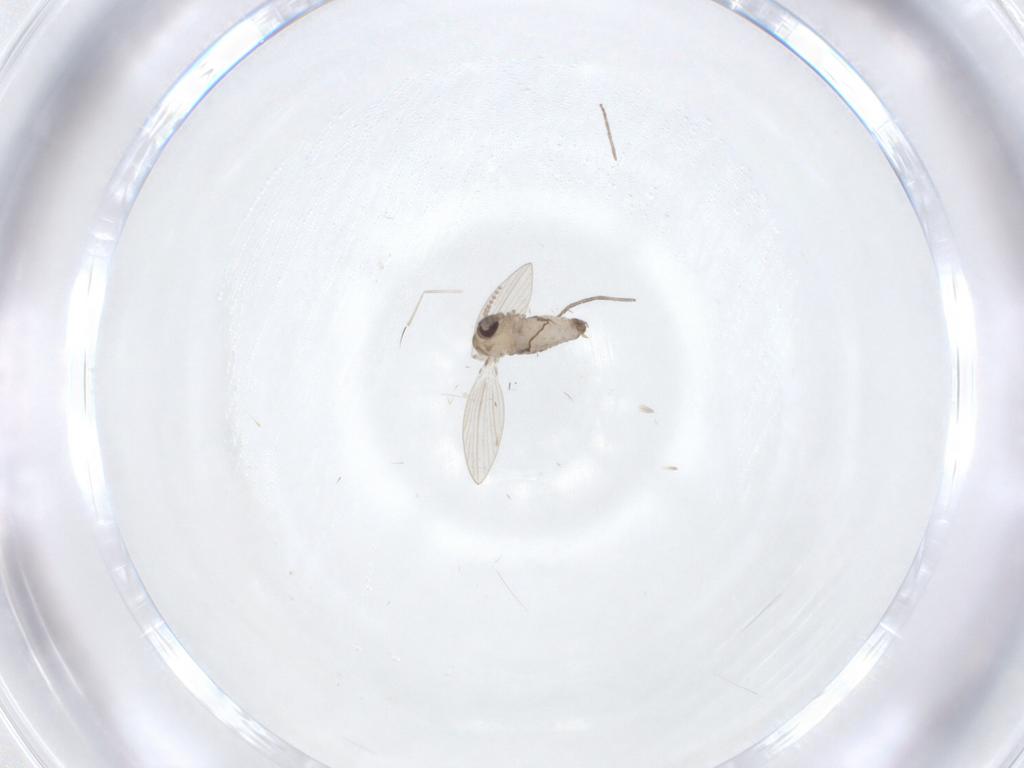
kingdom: Animalia
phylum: Arthropoda
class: Insecta
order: Diptera
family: Psychodidae
